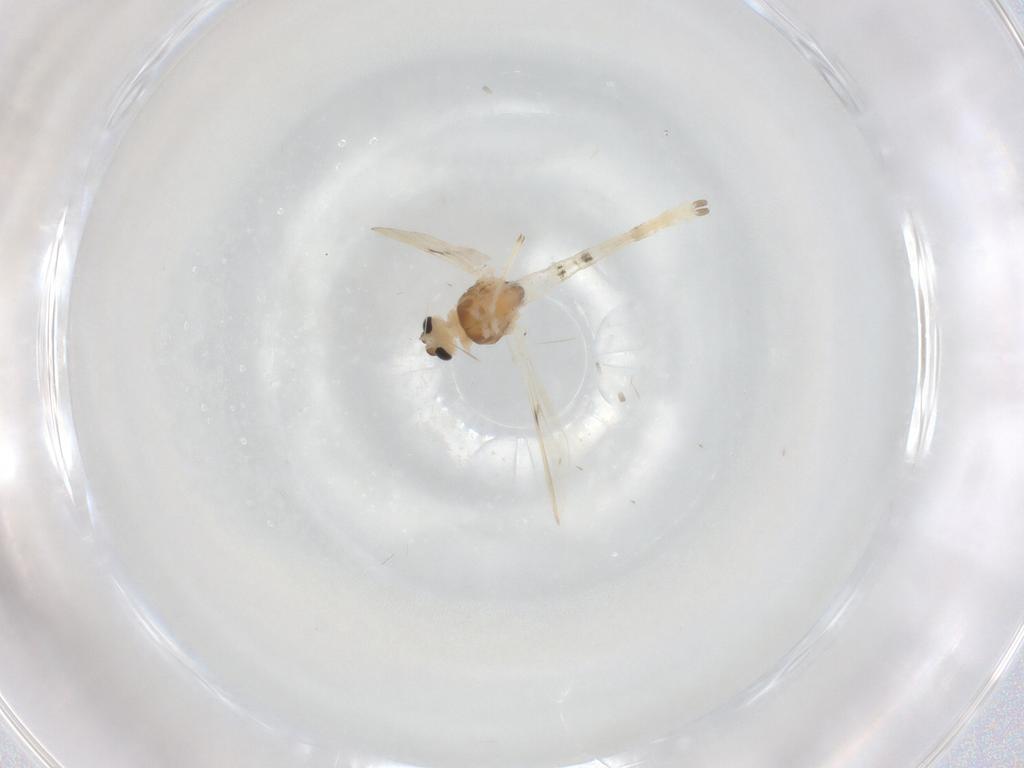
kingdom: Animalia
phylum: Arthropoda
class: Insecta
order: Diptera
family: Chironomidae
